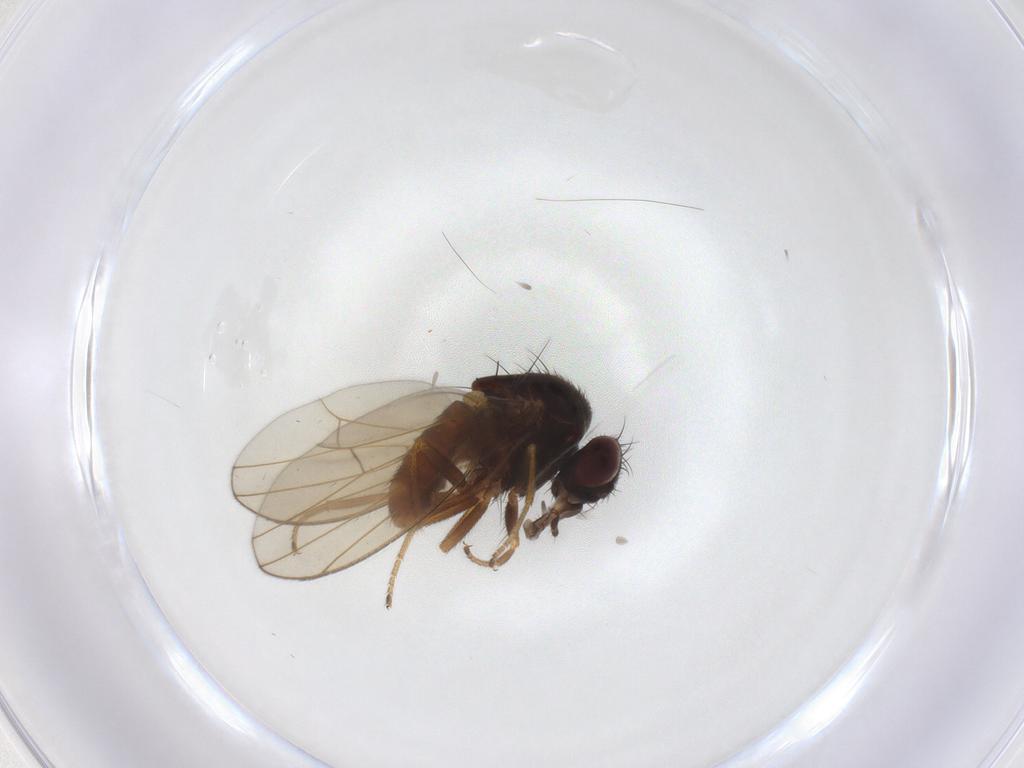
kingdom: Animalia
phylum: Arthropoda
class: Insecta
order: Diptera
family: Drosophilidae
